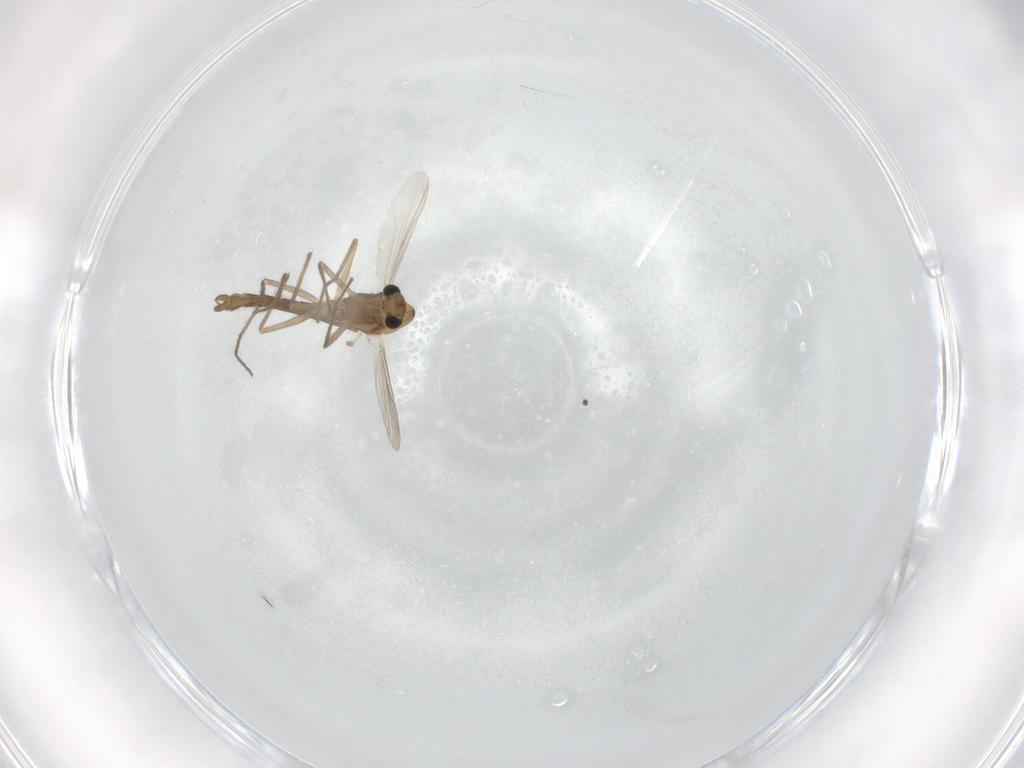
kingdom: Animalia
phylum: Arthropoda
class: Insecta
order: Diptera
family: Chironomidae
